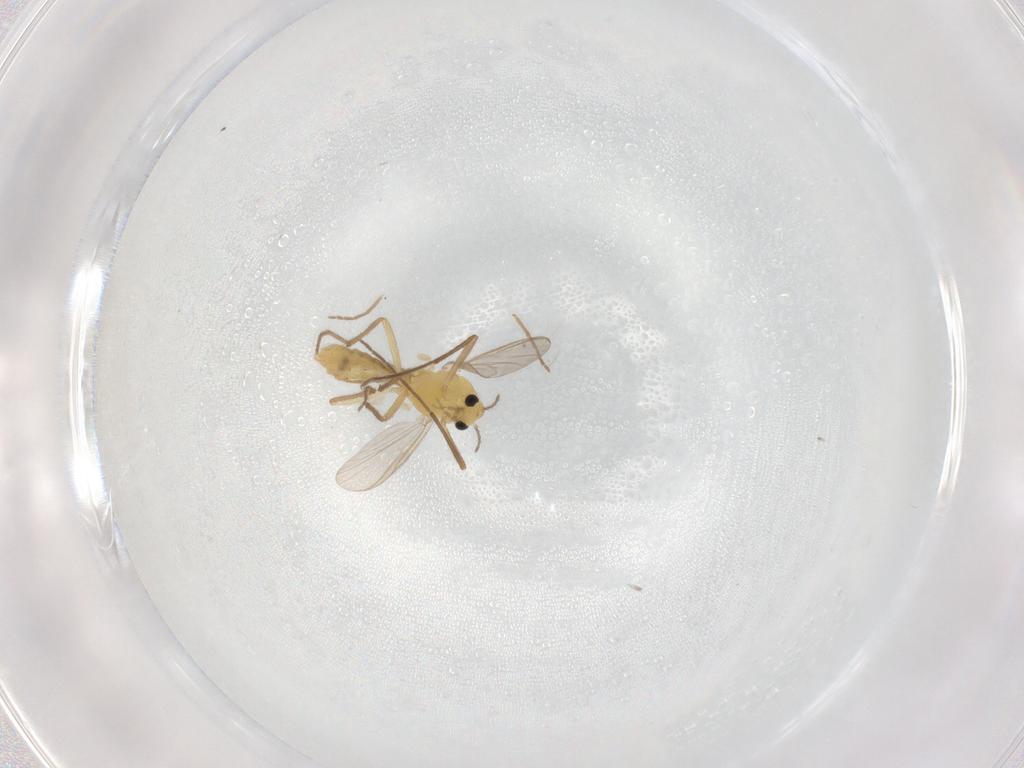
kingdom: Animalia
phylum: Arthropoda
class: Insecta
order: Diptera
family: Chironomidae
